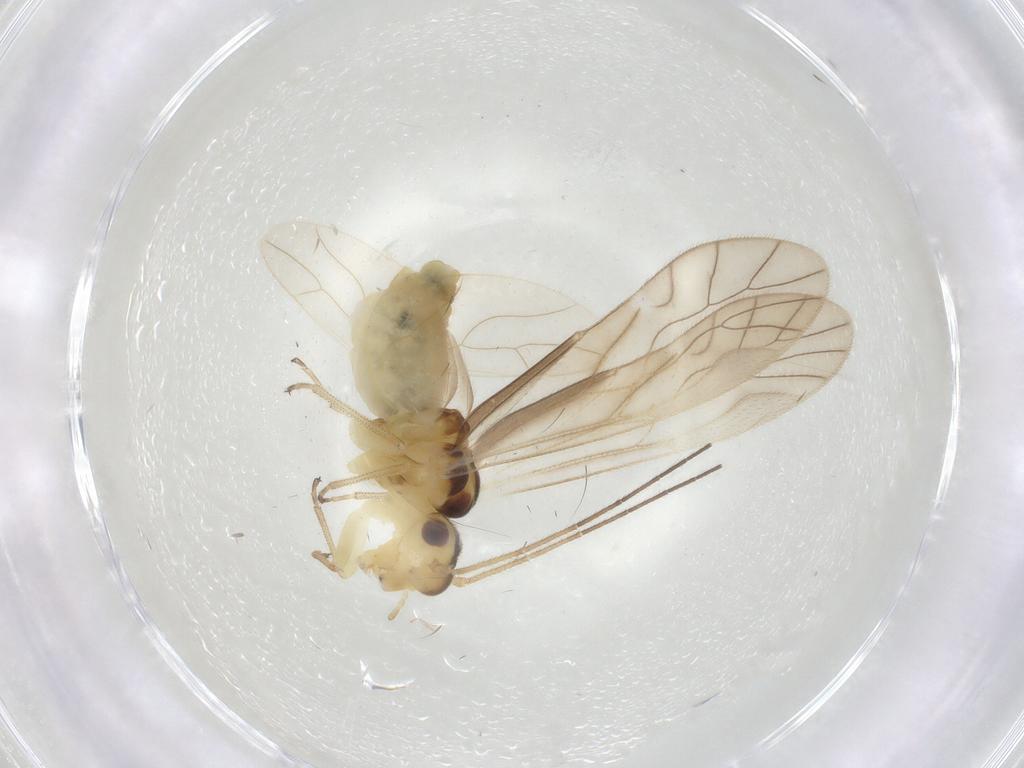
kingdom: Animalia
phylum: Arthropoda
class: Insecta
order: Psocodea
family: Caeciliusidae
